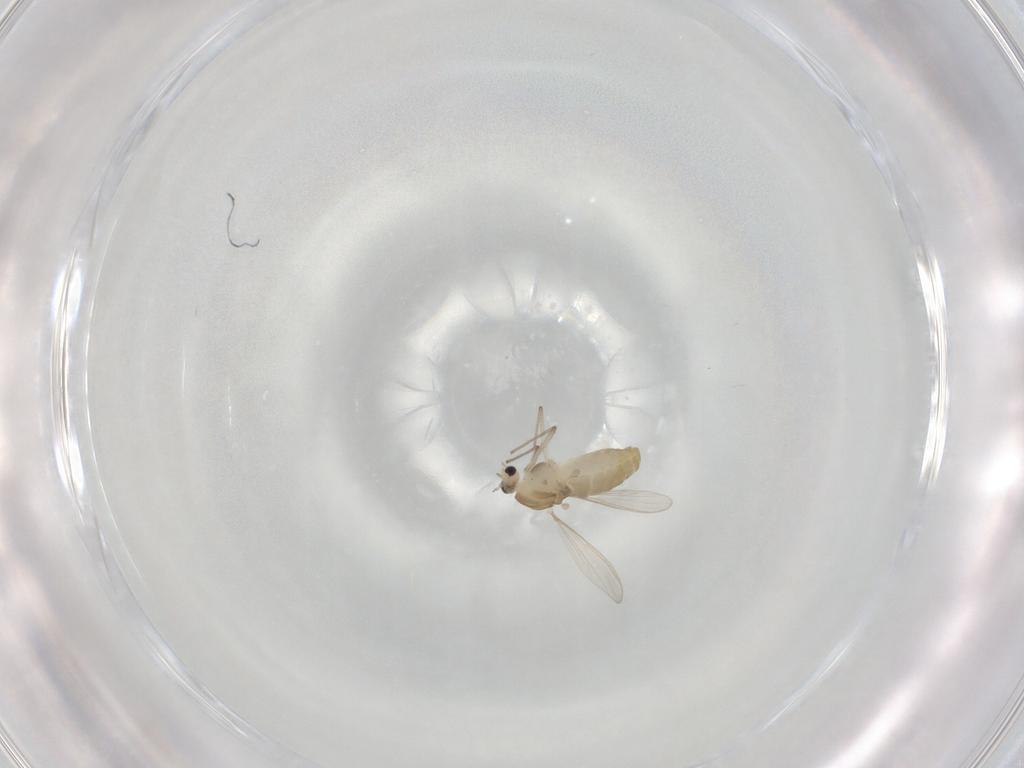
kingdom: Animalia
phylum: Arthropoda
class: Insecta
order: Diptera
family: Chironomidae
